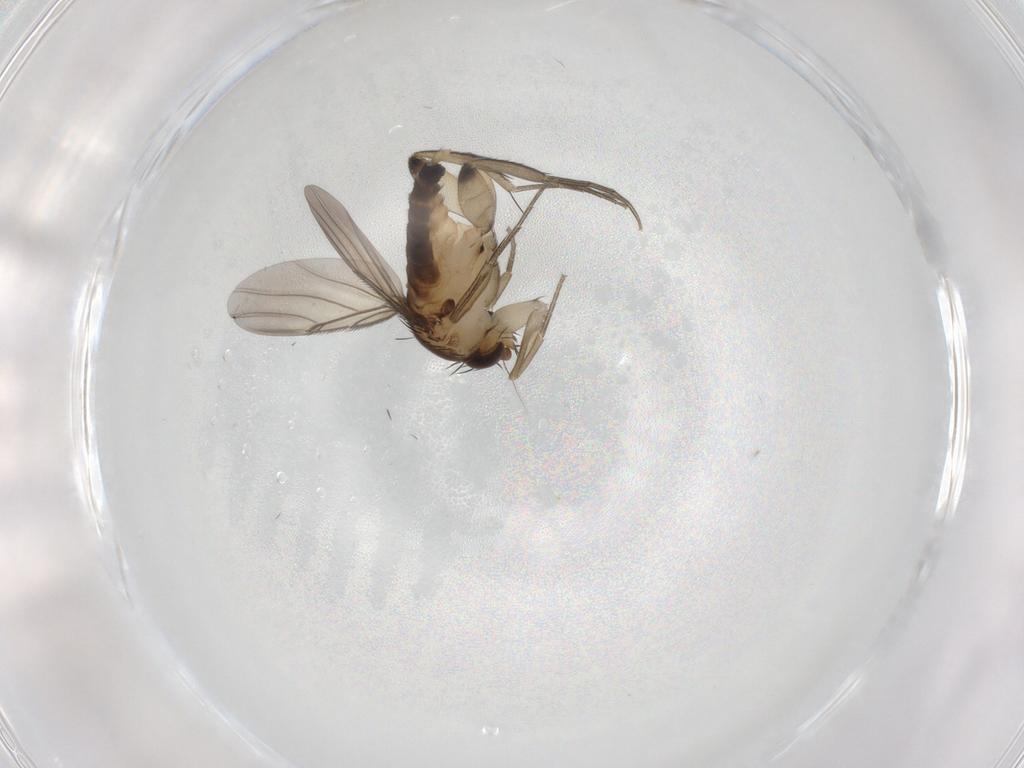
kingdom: Animalia
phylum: Arthropoda
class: Insecta
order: Diptera
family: Phoridae
